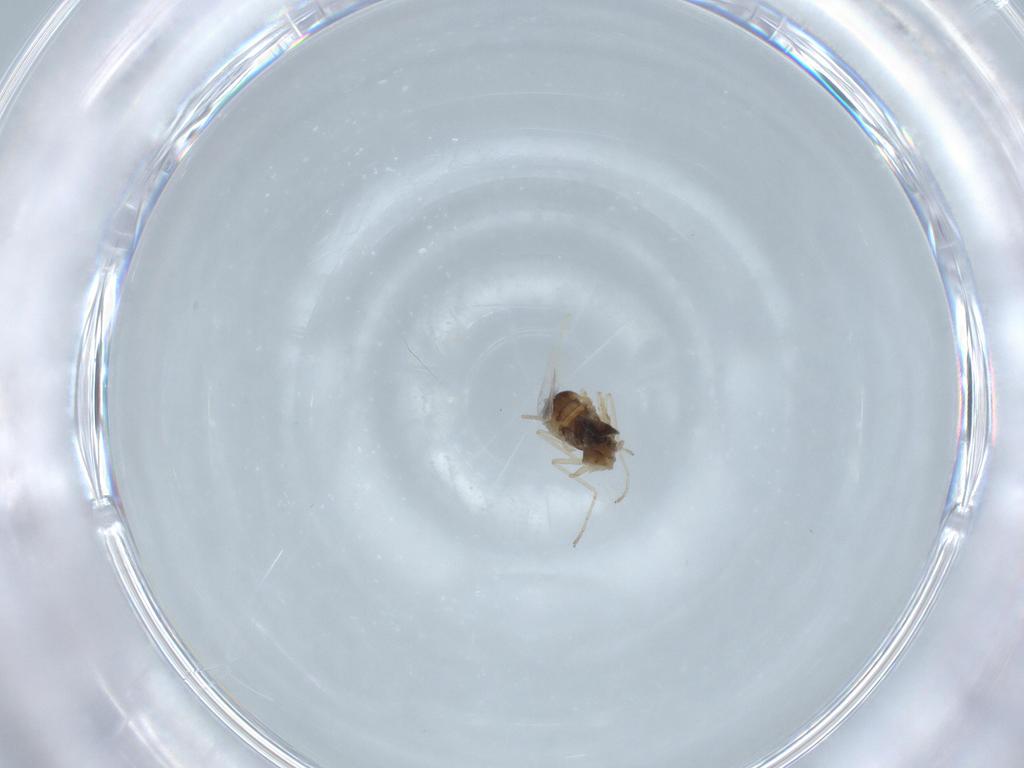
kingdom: Animalia
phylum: Arthropoda
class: Insecta
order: Diptera
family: Cecidomyiidae
